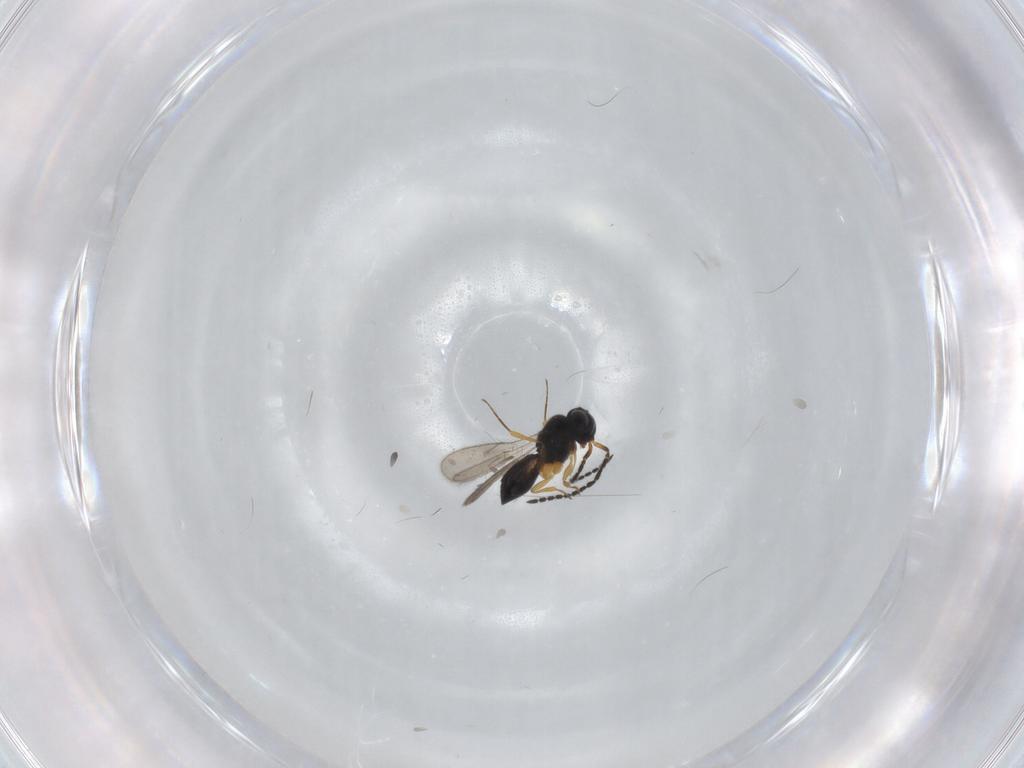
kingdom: Animalia
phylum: Arthropoda
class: Insecta
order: Hymenoptera
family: Scelionidae
